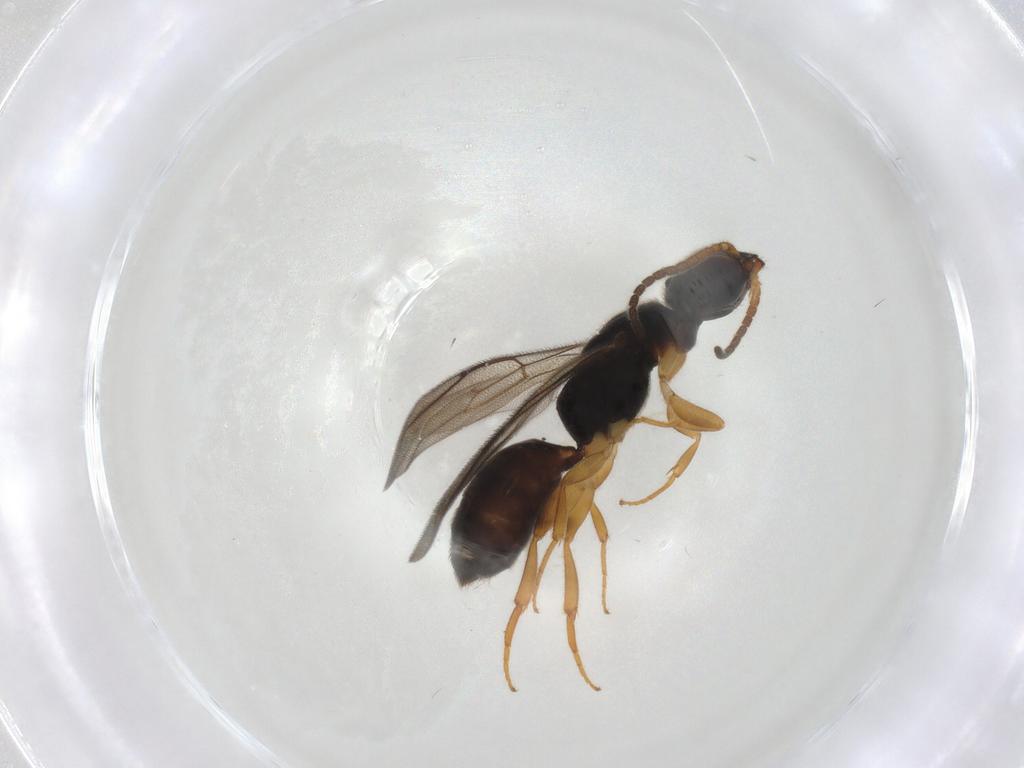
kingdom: Animalia
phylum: Arthropoda
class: Insecta
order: Hymenoptera
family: Bethylidae
